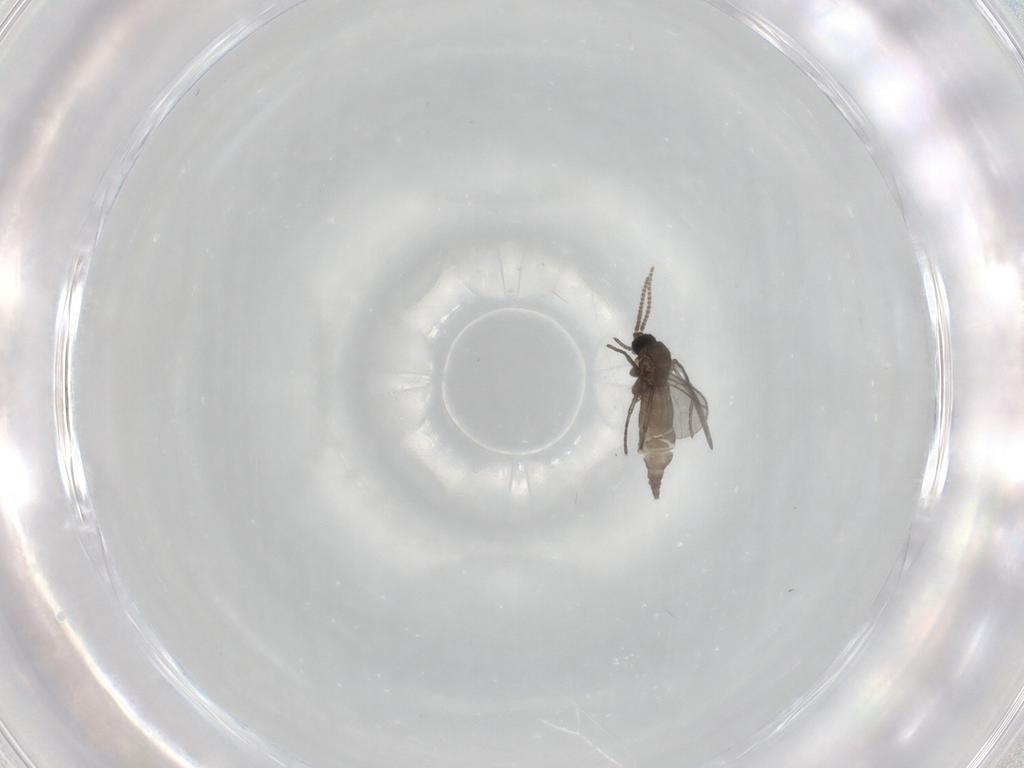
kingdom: Animalia
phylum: Arthropoda
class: Insecta
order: Diptera
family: Chironomidae
